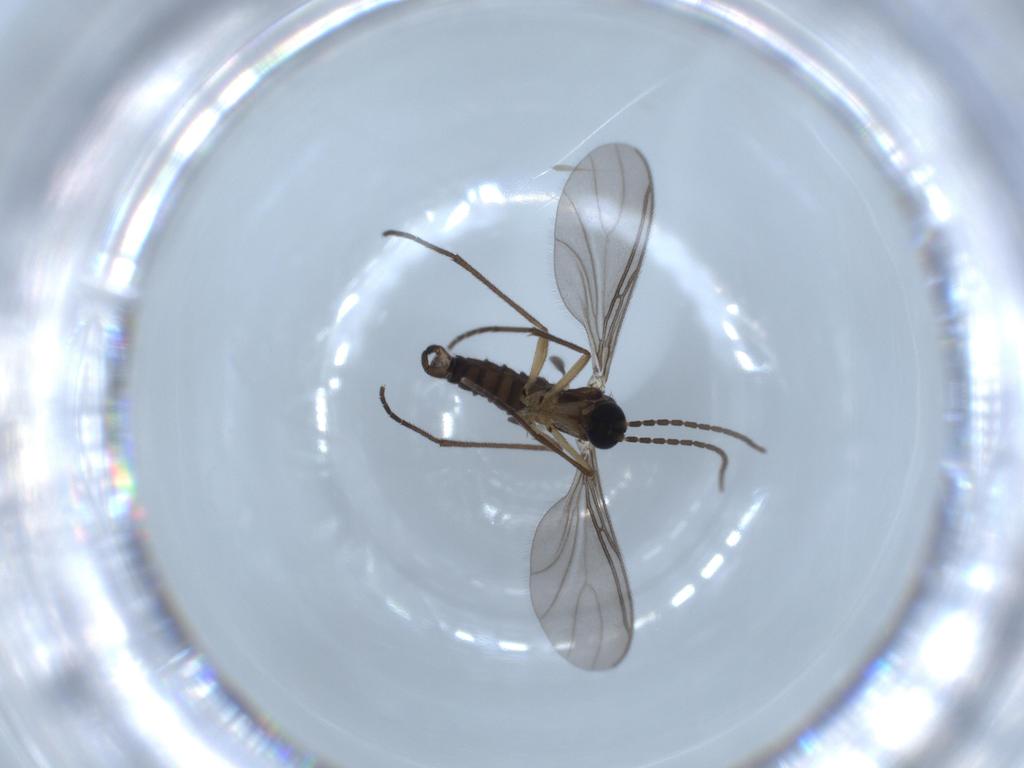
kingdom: Animalia
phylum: Arthropoda
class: Insecta
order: Diptera
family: Sciaridae
